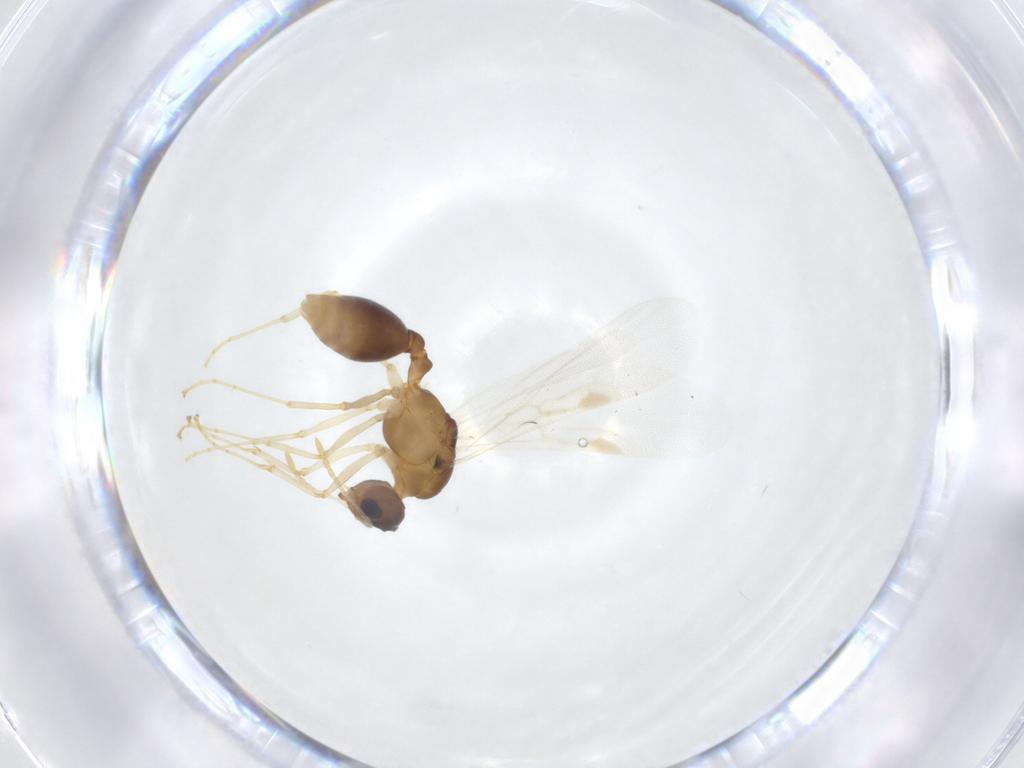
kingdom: Animalia
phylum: Arthropoda
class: Insecta
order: Hymenoptera
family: Formicidae
